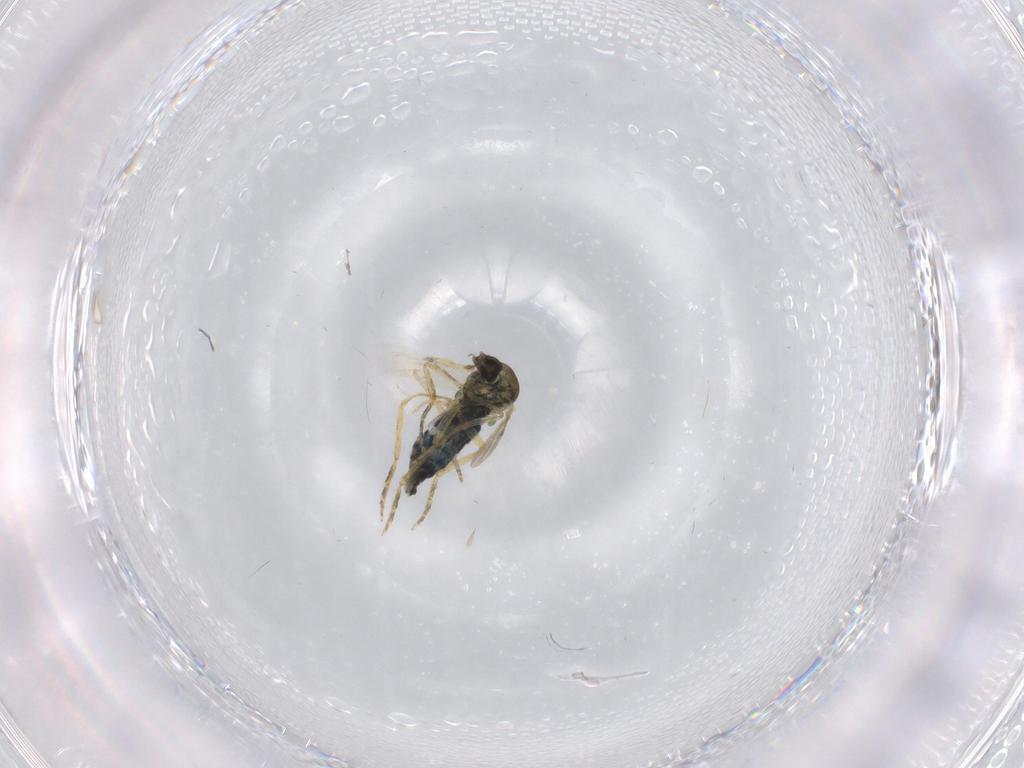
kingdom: Animalia
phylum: Arthropoda
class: Insecta
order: Diptera
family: Ceratopogonidae
